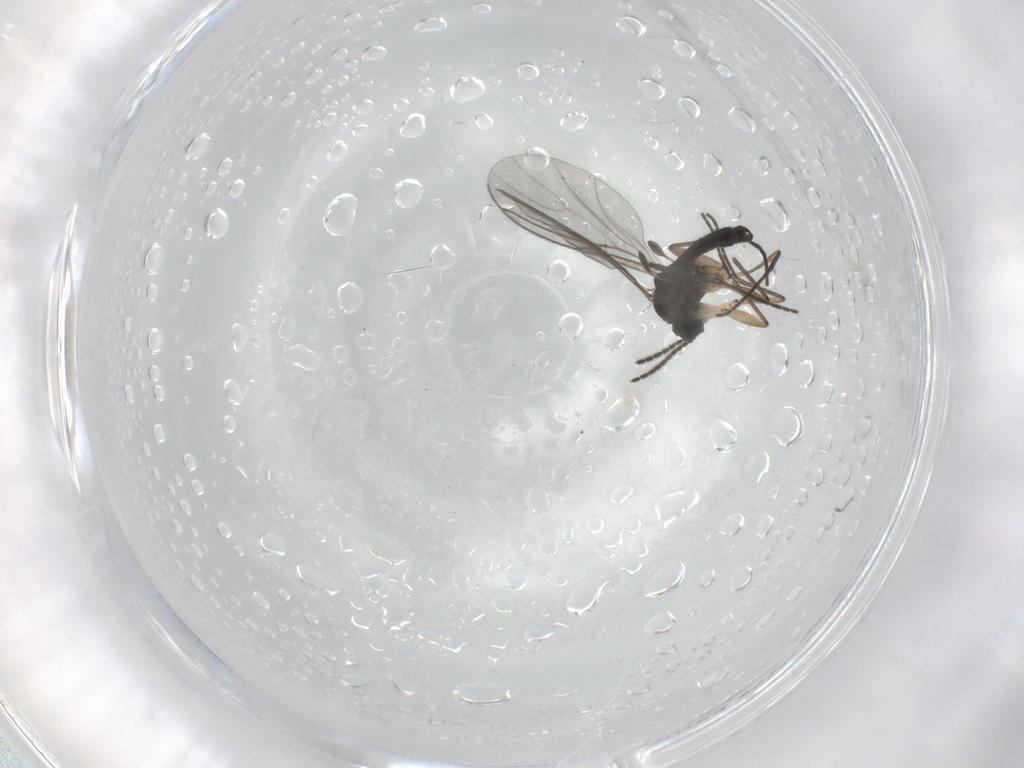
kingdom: Animalia
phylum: Arthropoda
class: Insecta
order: Diptera
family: Sciaridae
